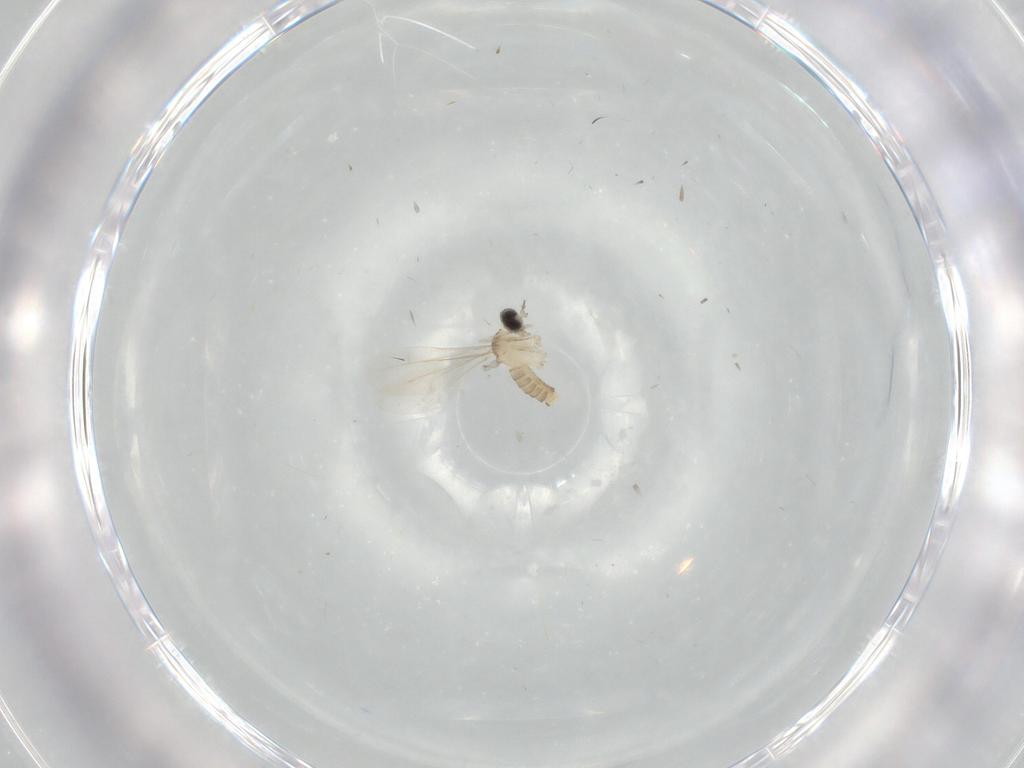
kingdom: Animalia
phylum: Arthropoda
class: Insecta
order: Diptera
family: Cecidomyiidae
